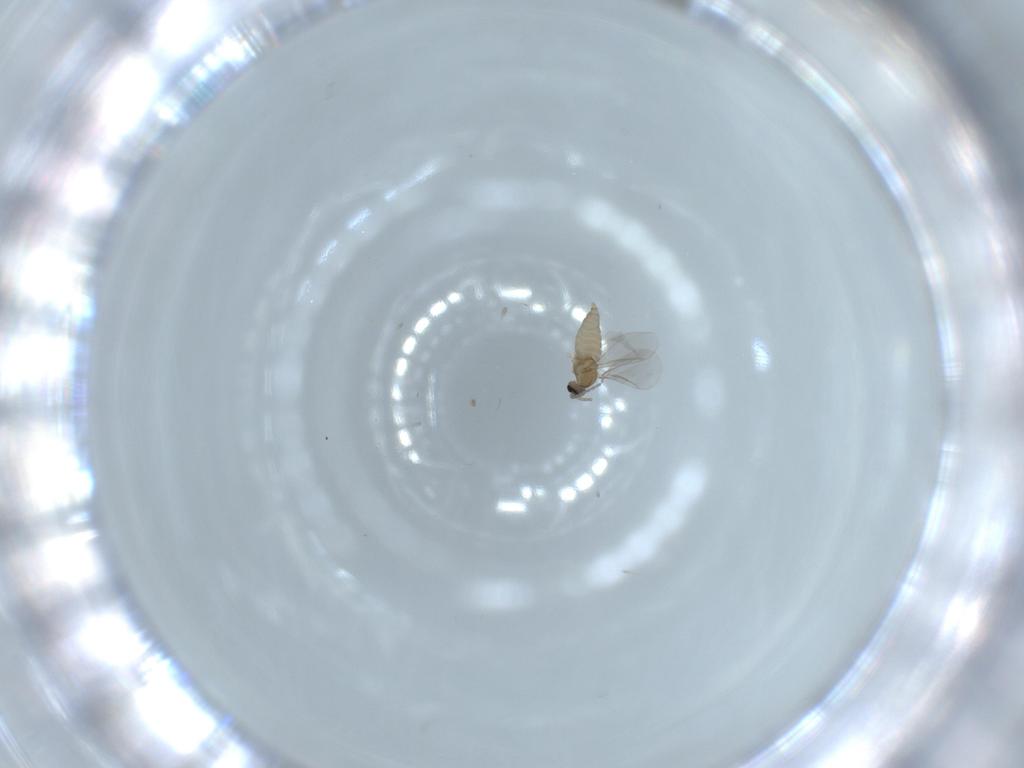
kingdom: Animalia
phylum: Arthropoda
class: Insecta
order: Diptera
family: Cecidomyiidae
